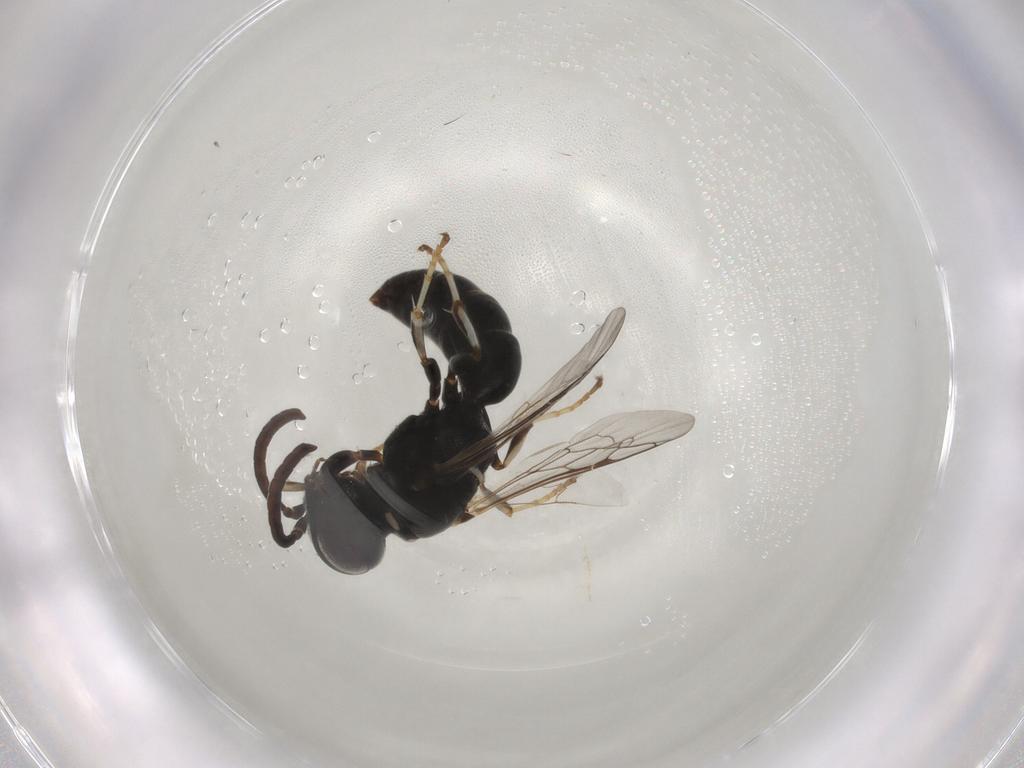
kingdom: Animalia
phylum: Arthropoda
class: Insecta
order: Hymenoptera
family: Crabronidae
